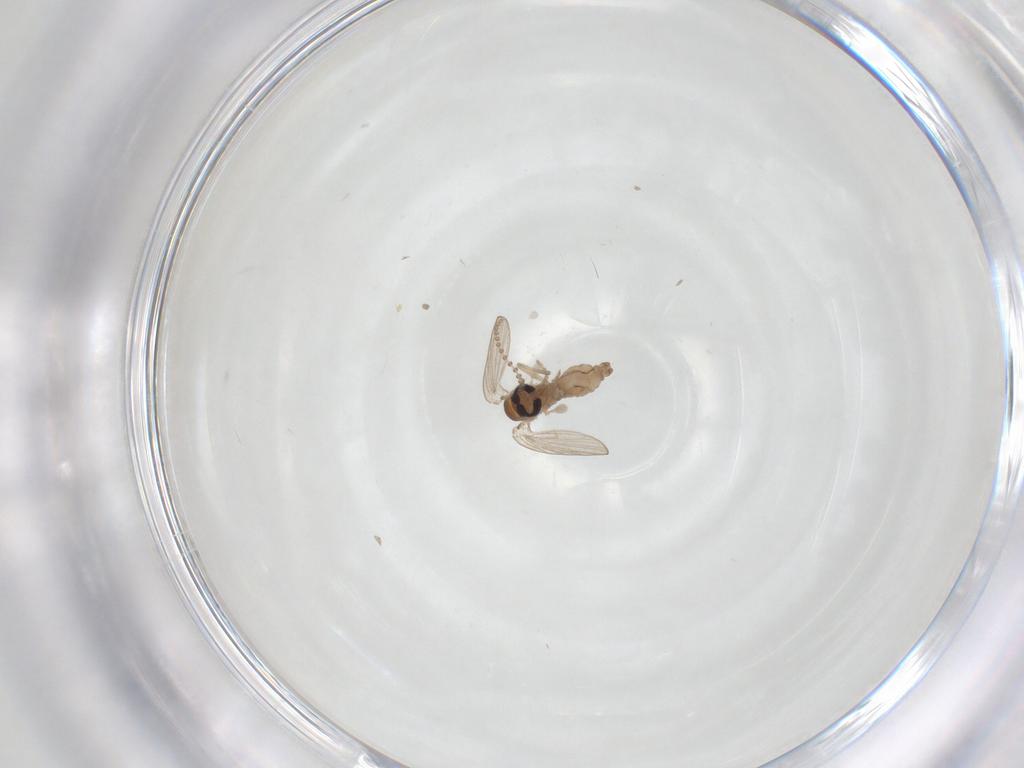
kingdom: Animalia
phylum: Arthropoda
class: Insecta
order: Diptera
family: Psychodidae
